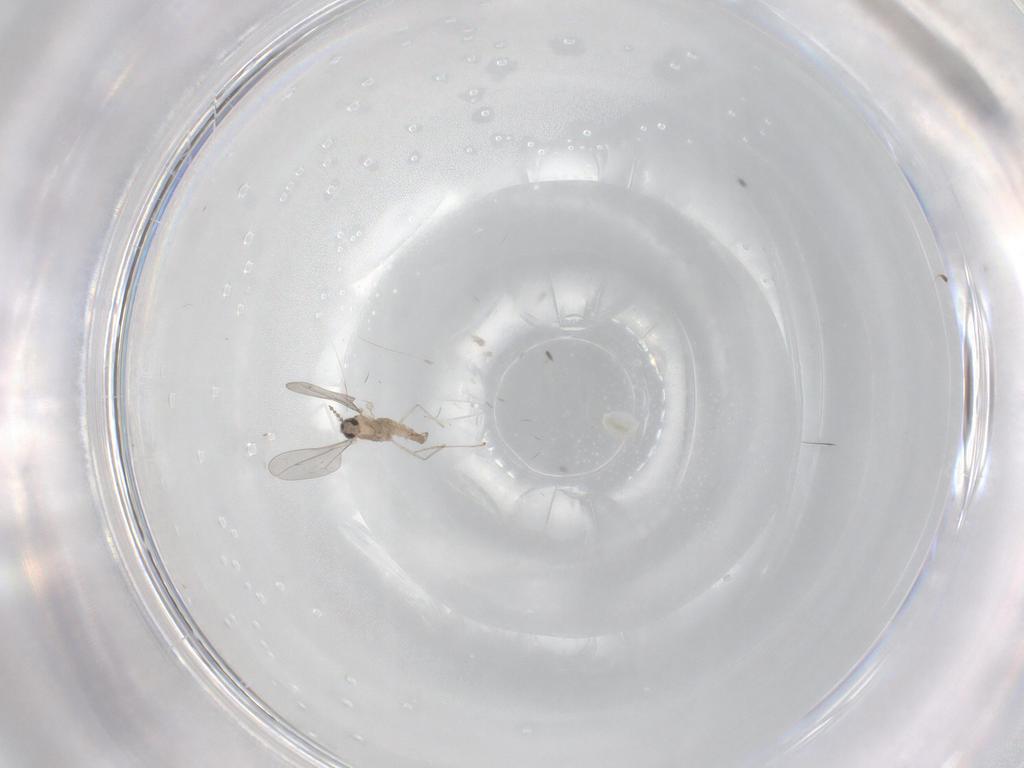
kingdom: Animalia
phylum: Arthropoda
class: Insecta
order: Diptera
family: Cecidomyiidae
